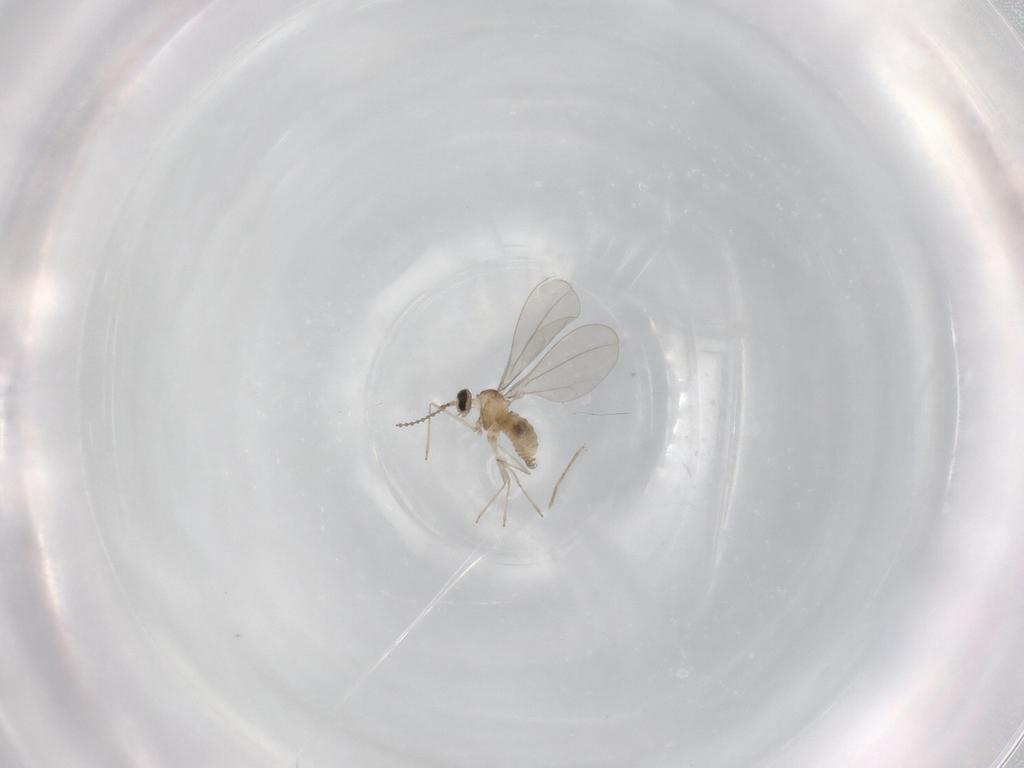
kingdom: Animalia
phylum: Arthropoda
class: Insecta
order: Diptera
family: Cecidomyiidae
